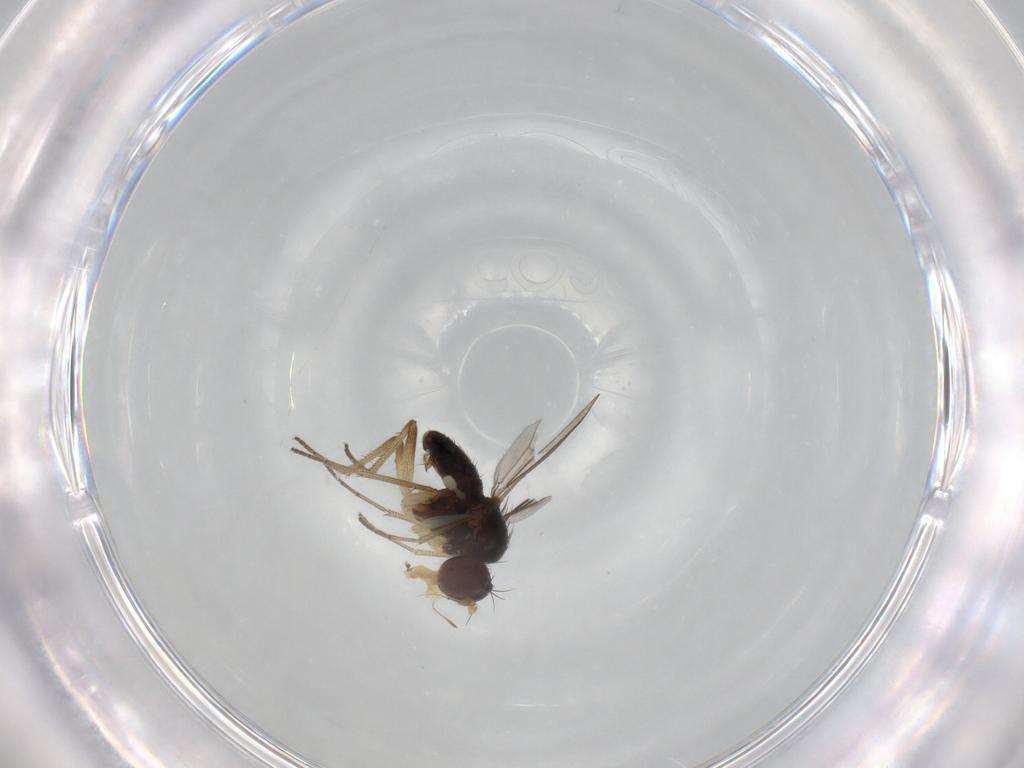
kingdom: Animalia
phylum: Arthropoda
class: Insecta
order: Diptera
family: Dolichopodidae
